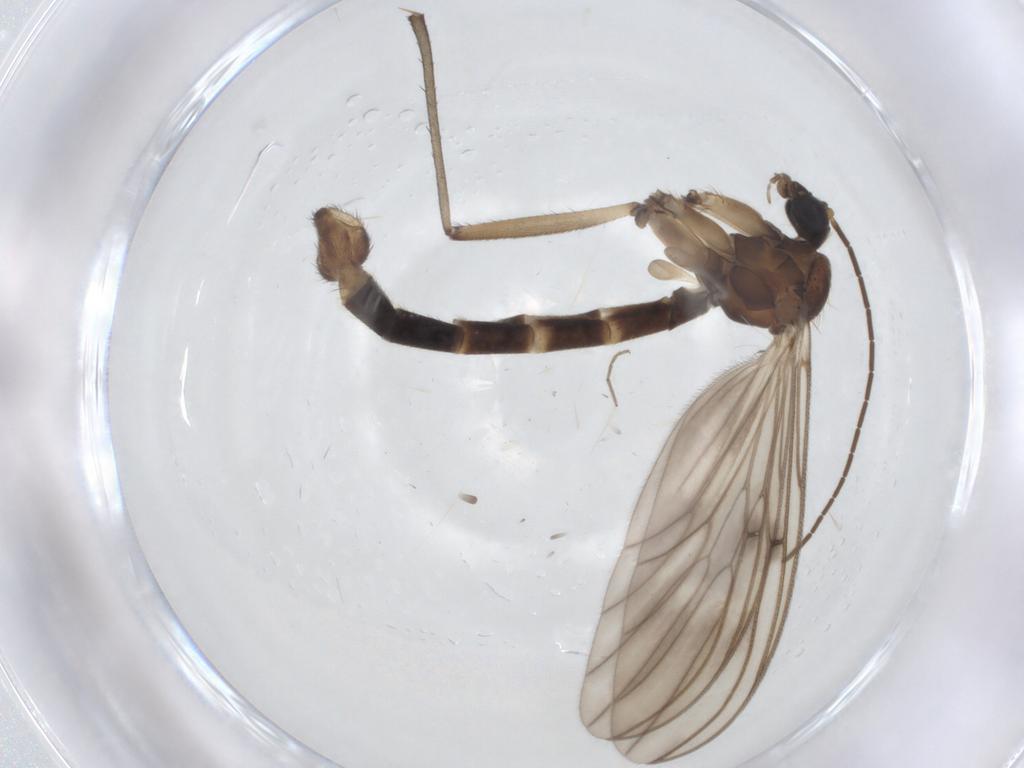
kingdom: Animalia
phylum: Arthropoda
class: Insecta
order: Diptera
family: Mycetophilidae
